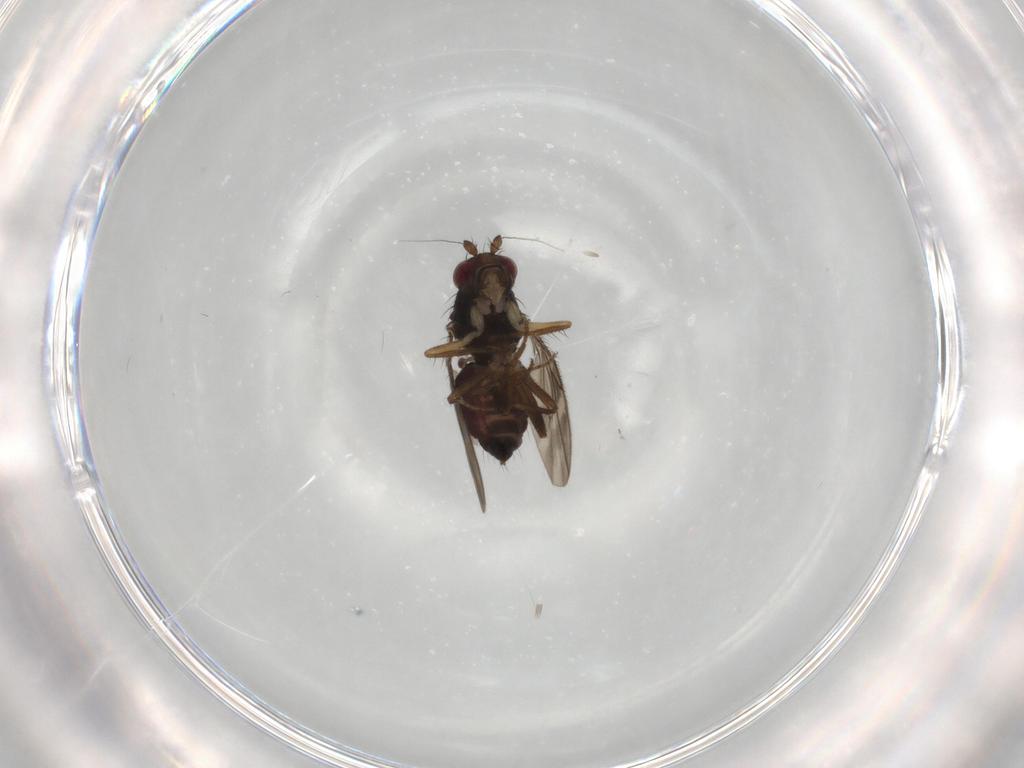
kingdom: Animalia
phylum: Arthropoda
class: Insecta
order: Diptera
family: Sphaeroceridae
